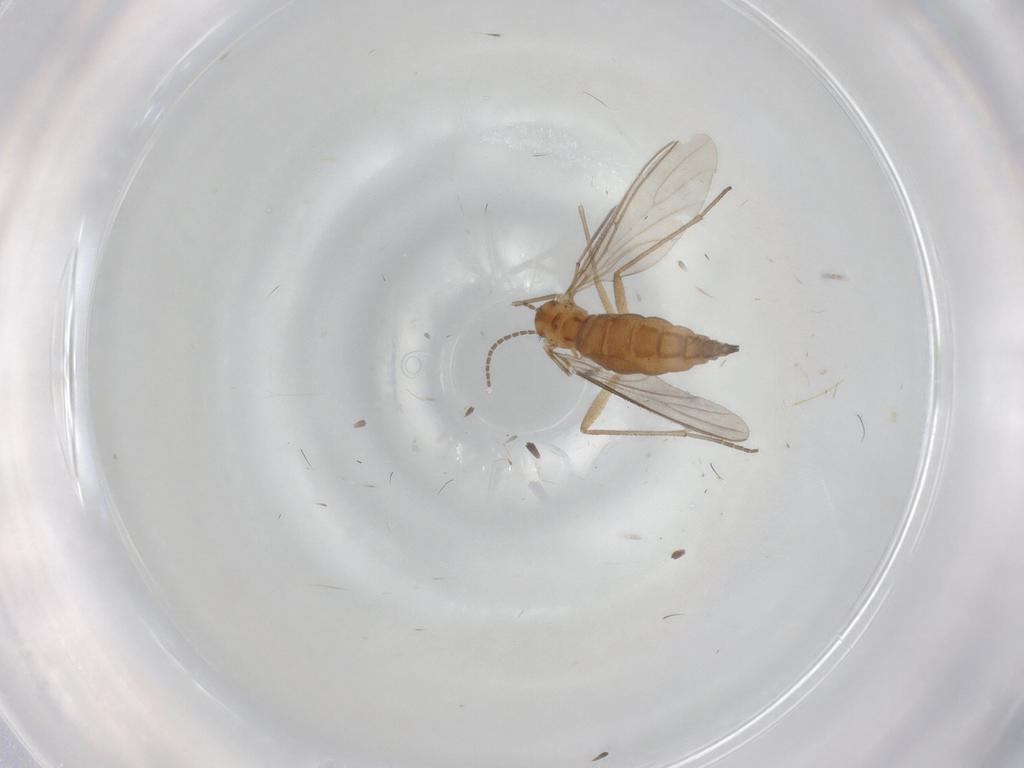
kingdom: Animalia
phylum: Arthropoda
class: Insecta
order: Diptera
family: Sciaridae
